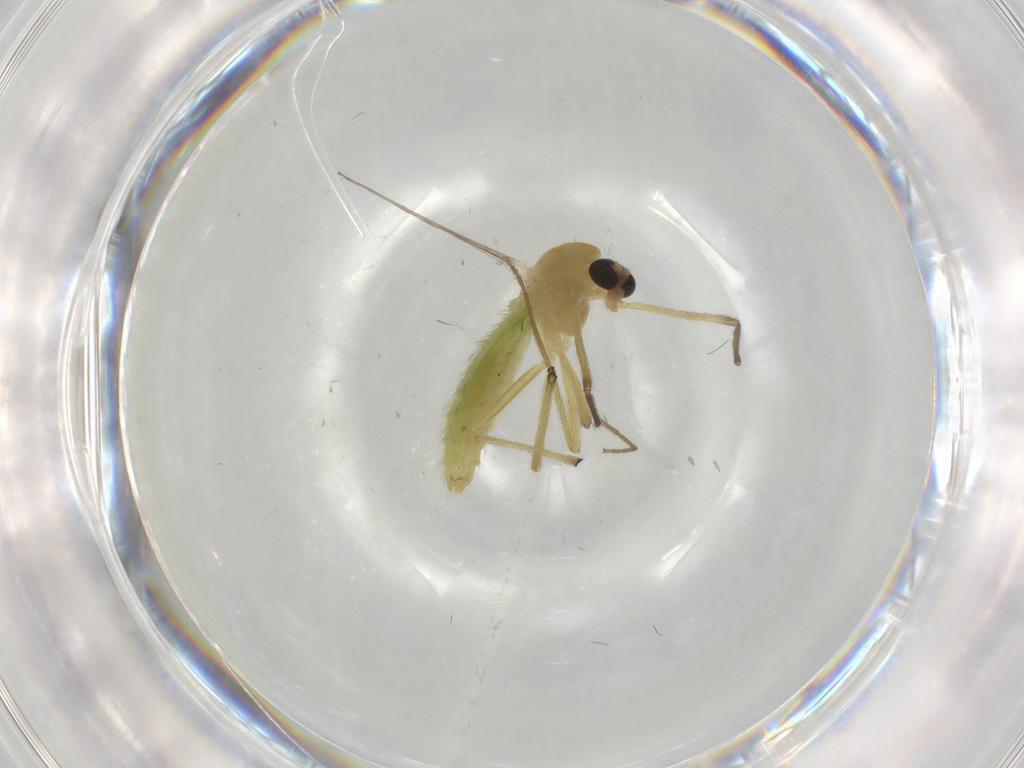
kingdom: Animalia
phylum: Arthropoda
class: Insecta
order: Diptera
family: Chironomidae
